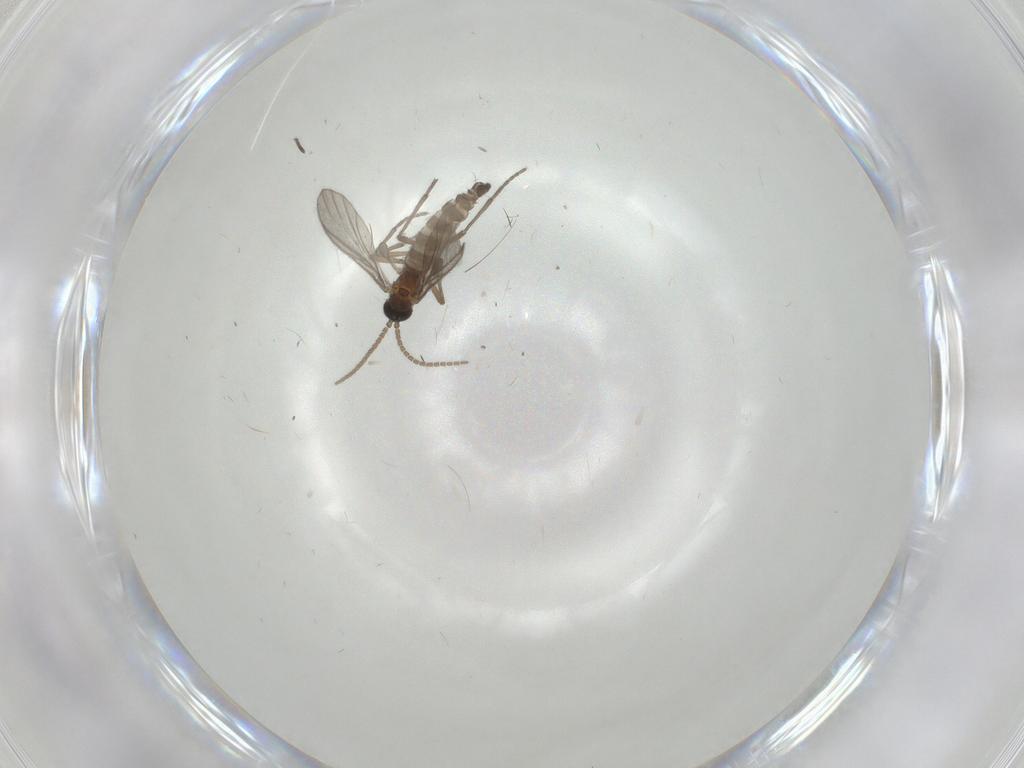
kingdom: Animalia
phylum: Arthropoda
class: Insecta
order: Diptera
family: Sciaridae
